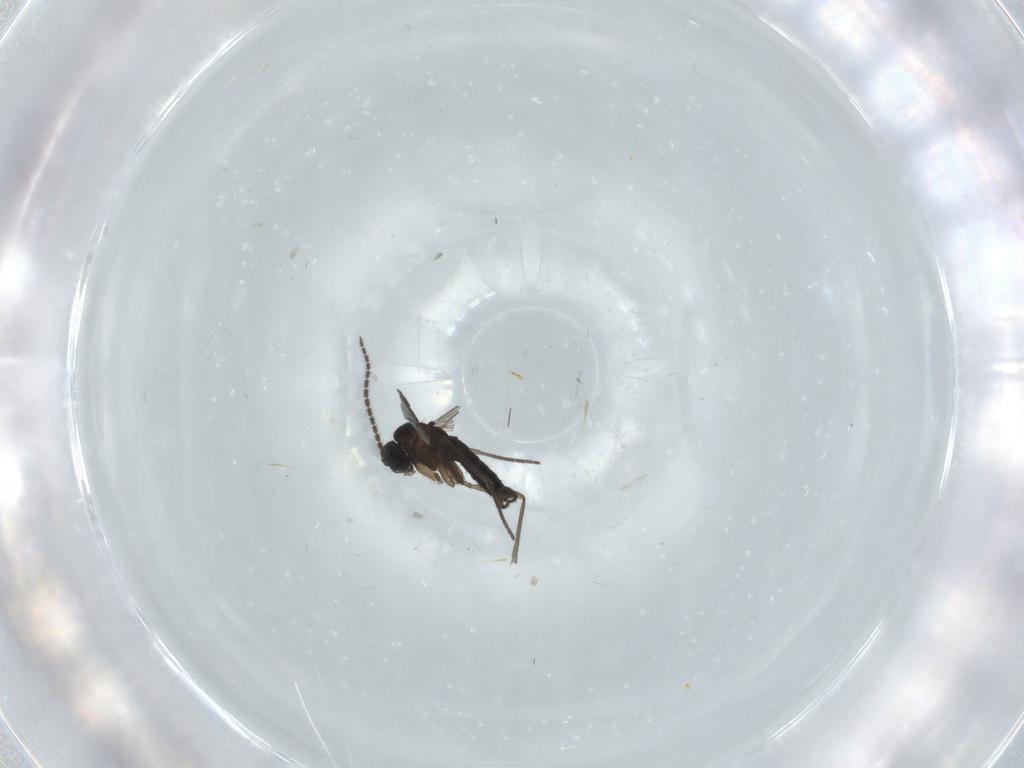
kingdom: Animalia
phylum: Arthropoda
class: Insecta
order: Diptera
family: Sciaridae
